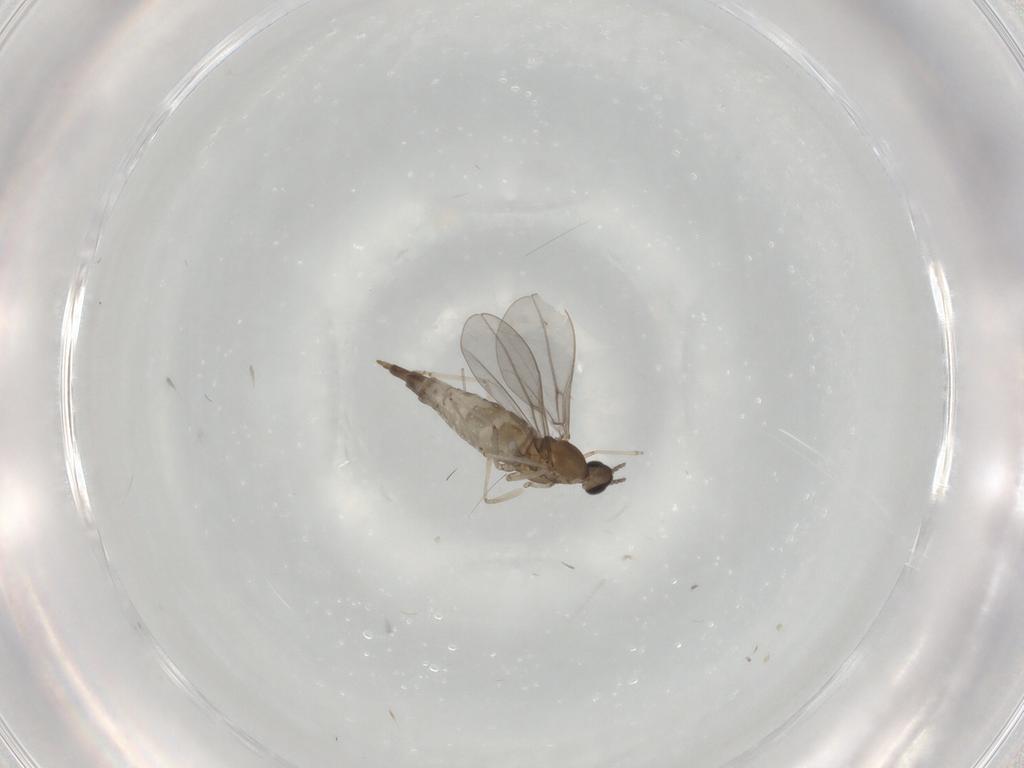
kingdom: Animalia
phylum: Arthropoda
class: Insecta
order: Diptera
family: Cecidomyiidae
